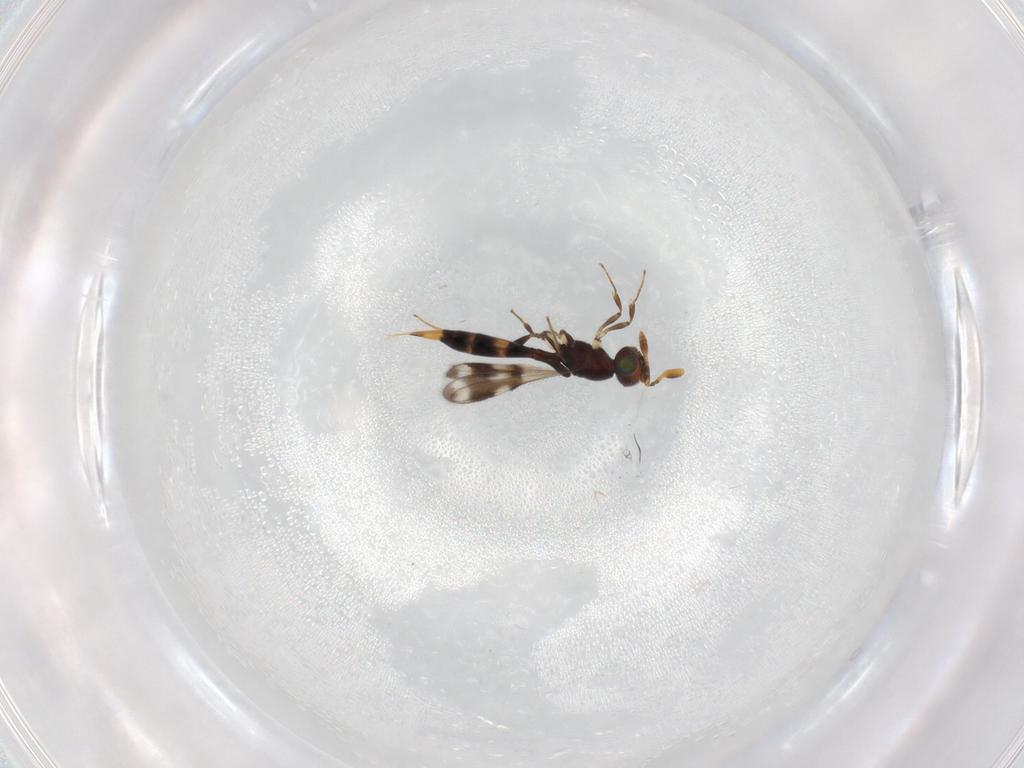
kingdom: Animalia
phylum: Arthropoda
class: Insecta
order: Hymenoptera
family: Scelionidae
